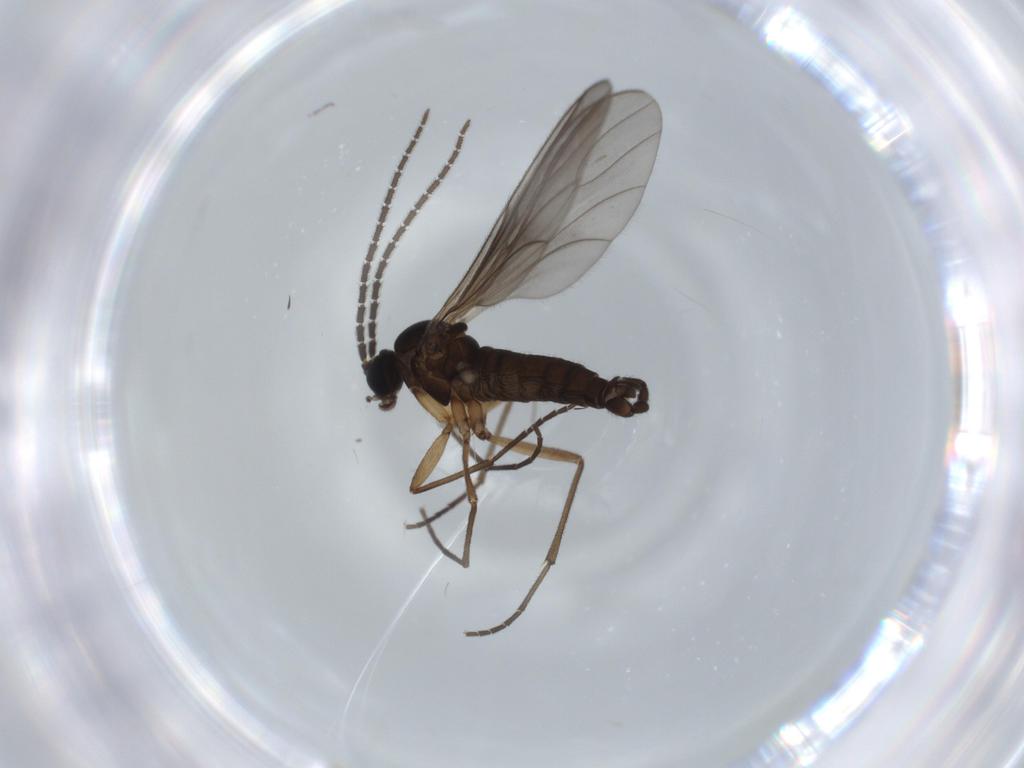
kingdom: Animalia
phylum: Arthropoda
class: Insecta
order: Diptera
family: Sciaridae
